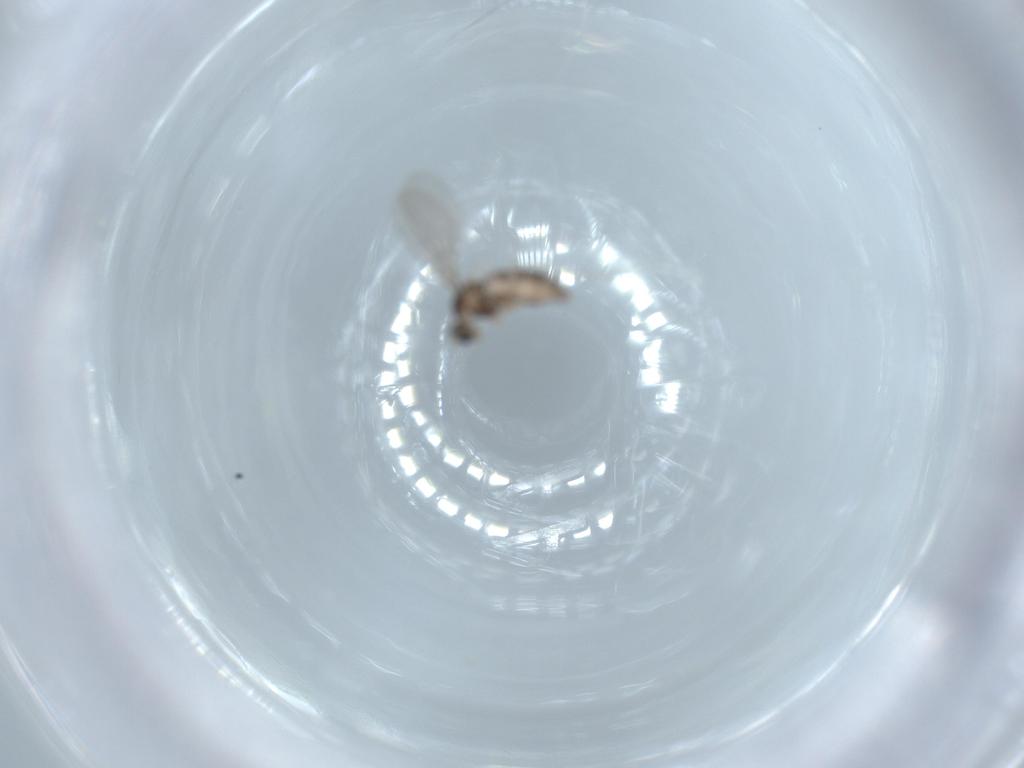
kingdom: Animalia
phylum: Arthropoda
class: Insecta
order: Diptera
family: Cecidomyiidae
